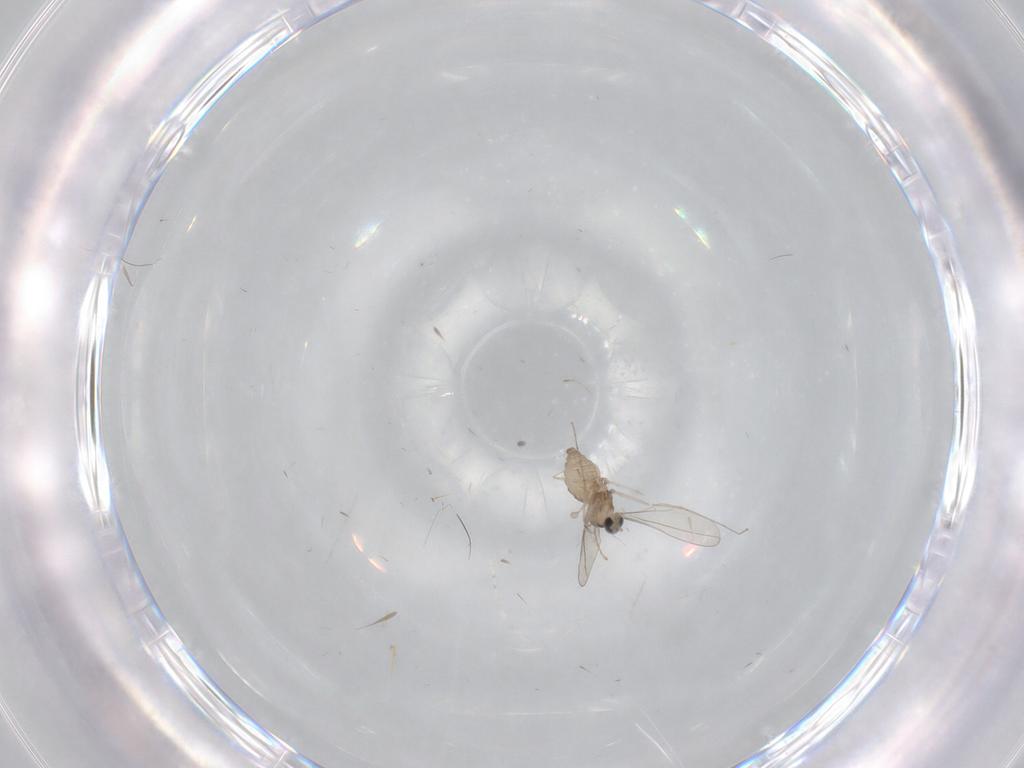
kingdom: Animalia
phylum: Arthropoda
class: Insecta
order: Diptera
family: Cecidomyiidae
